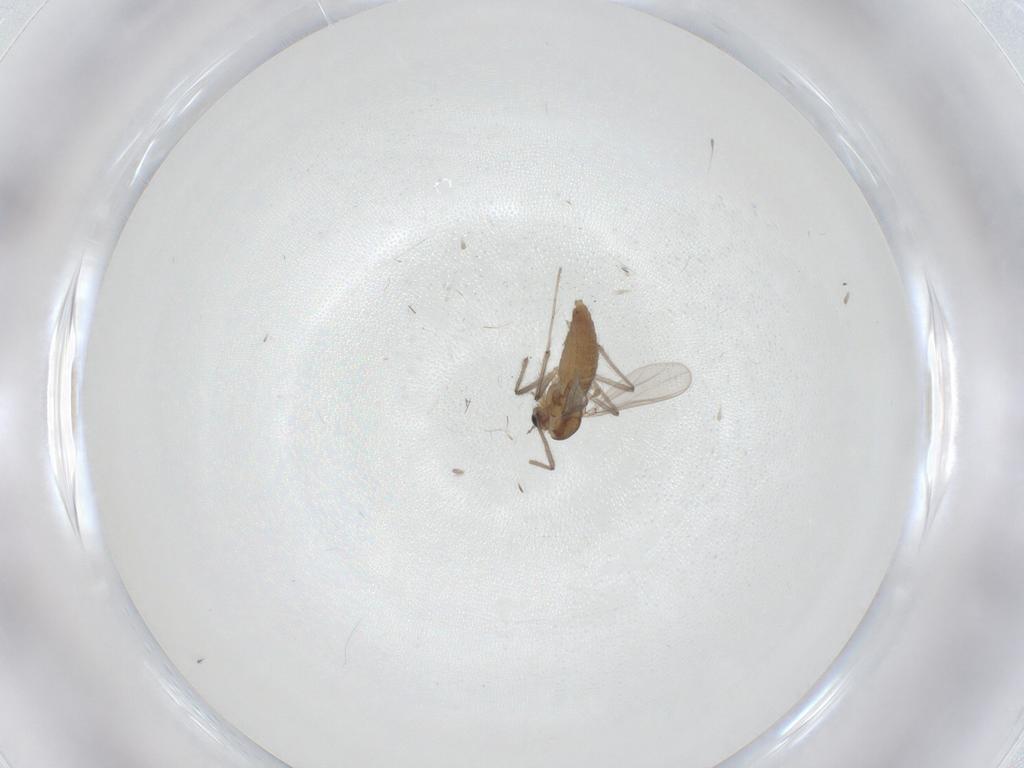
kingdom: Animalia
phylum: Arthropoda
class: Insecta
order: Diptera
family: Chironomidae
